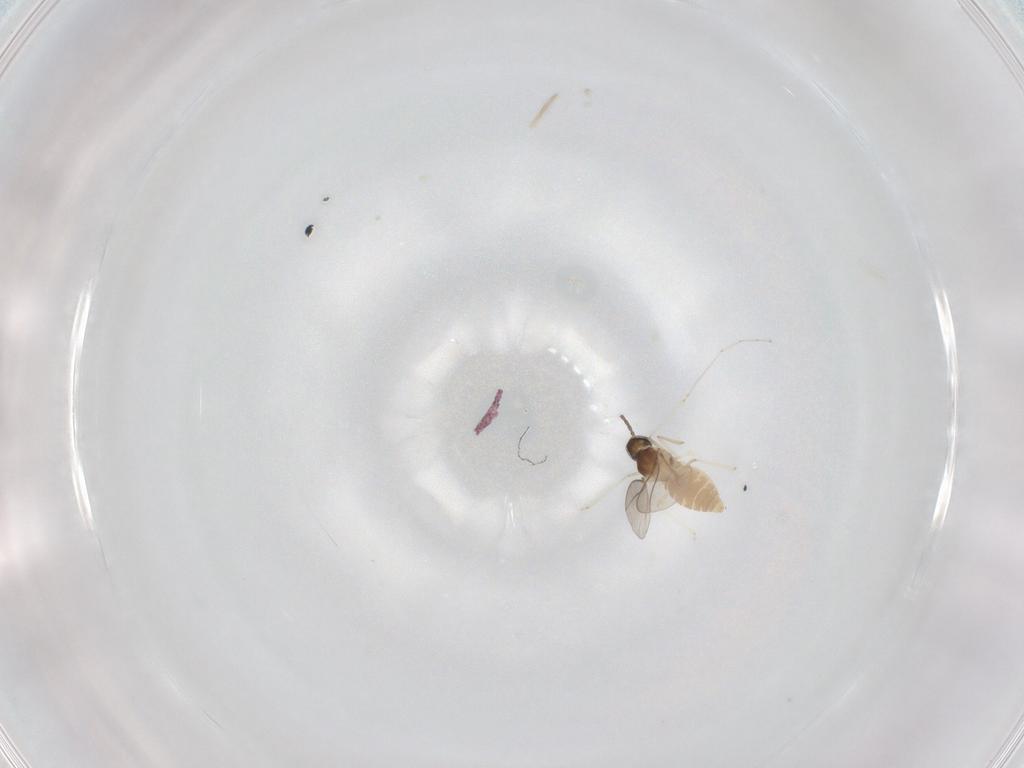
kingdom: Animalia
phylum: Arthropoda
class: Insecta
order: Diptera
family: Cecidomyiidae
